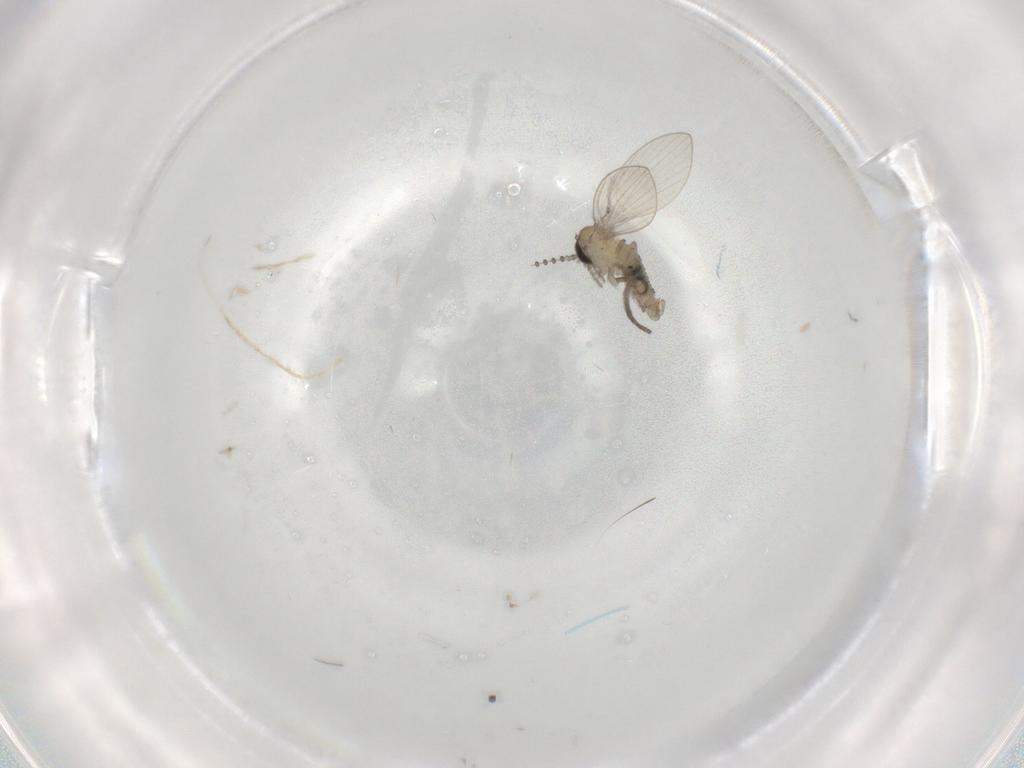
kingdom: Animalia
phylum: Arthropoda
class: Insecta
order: Diptera
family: Psychodidae
